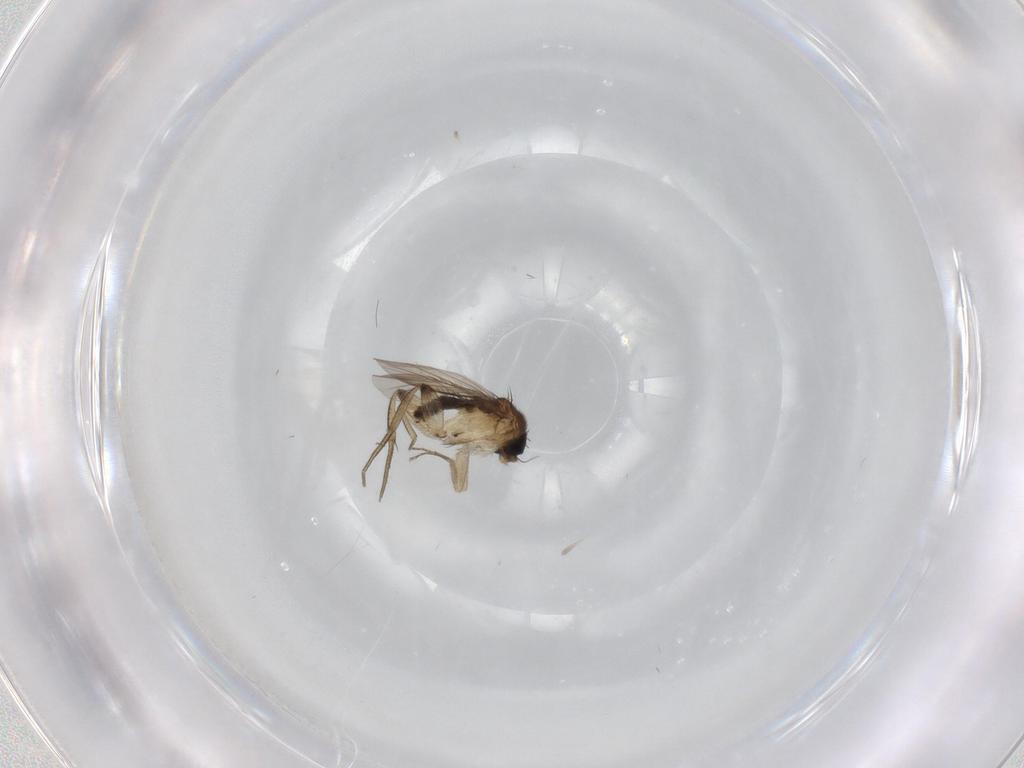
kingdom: Animalia
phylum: Arthropoda
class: Insecta
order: Diptera
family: Phoridae
